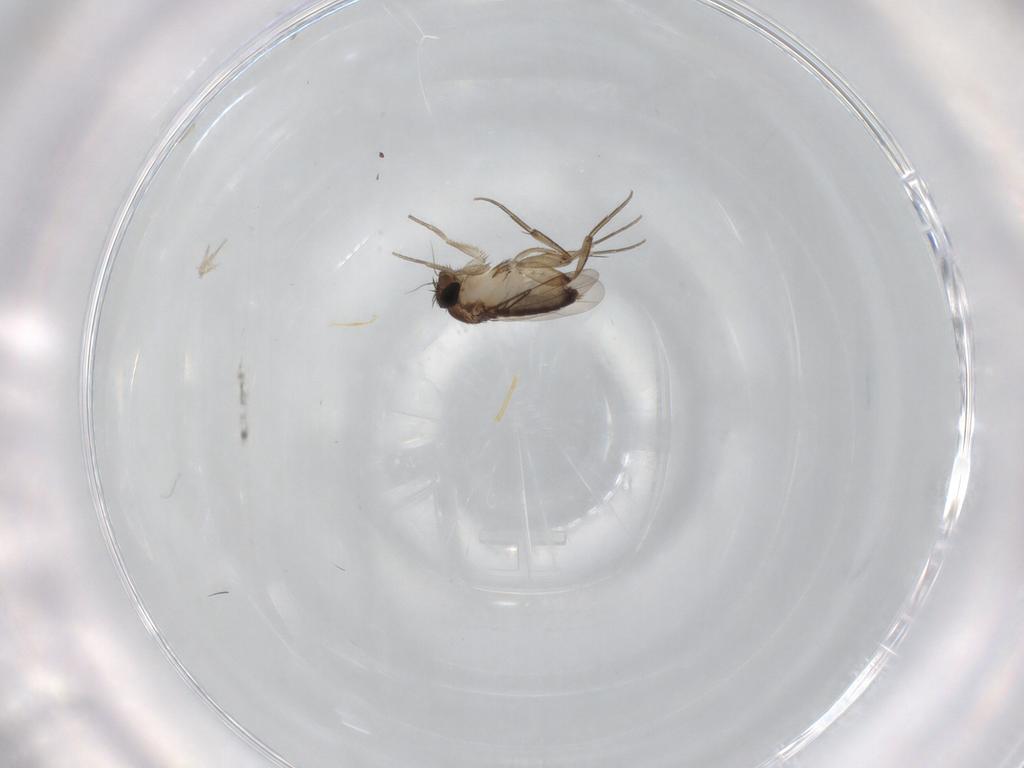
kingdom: Animalia
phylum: Arthropoda
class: Insecta
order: Diptera
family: Phoridae
